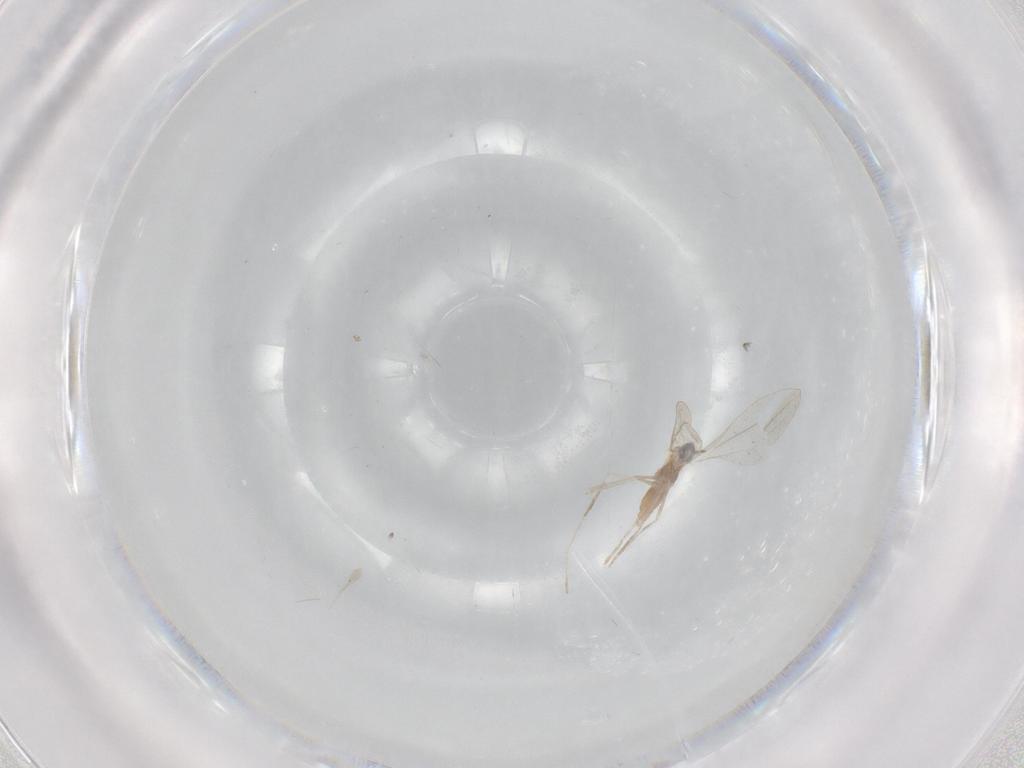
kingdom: Animalia
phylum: Arthropoda
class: Insecta
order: Diptera
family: Cecidomyiidae
